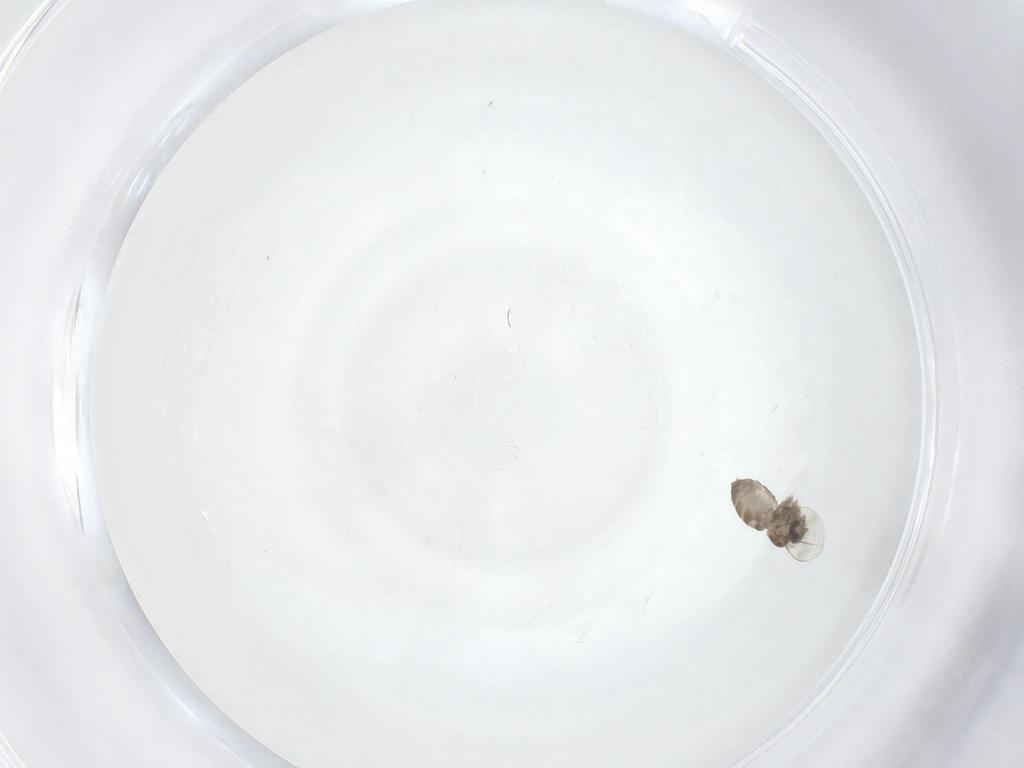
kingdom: Animalia
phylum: Arthropoda
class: Insecta
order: Diptera
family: Cecidomyiidae
